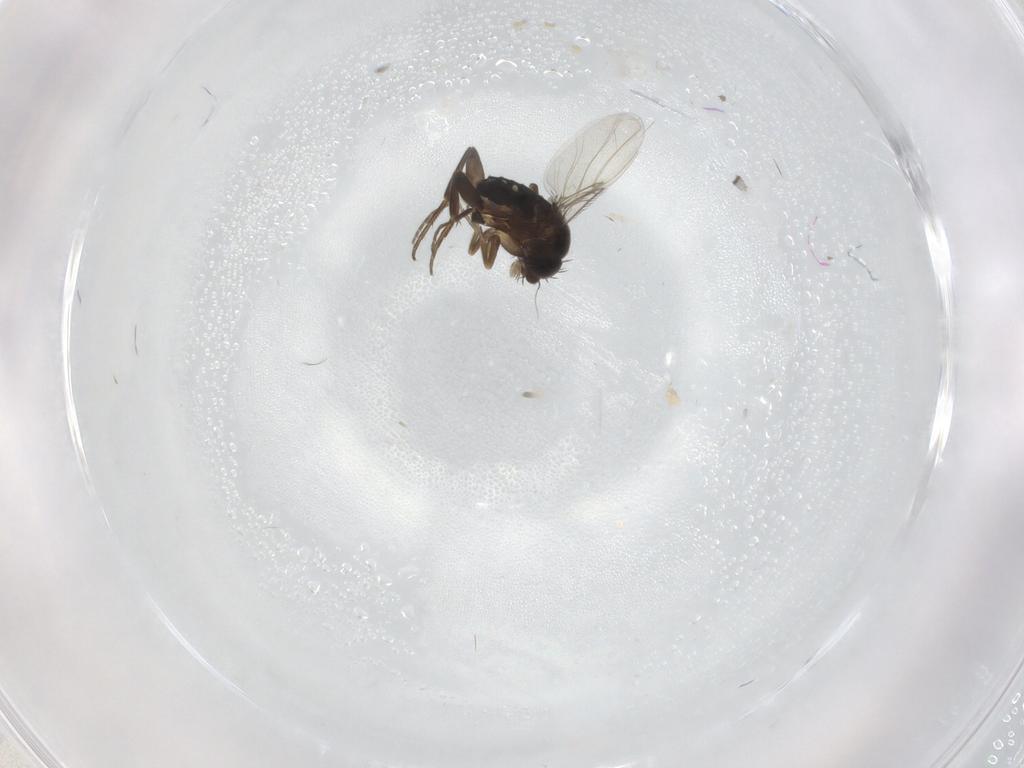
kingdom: Animalia
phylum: Arthropoda
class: Insecta
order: Diptera
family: Phoridae
